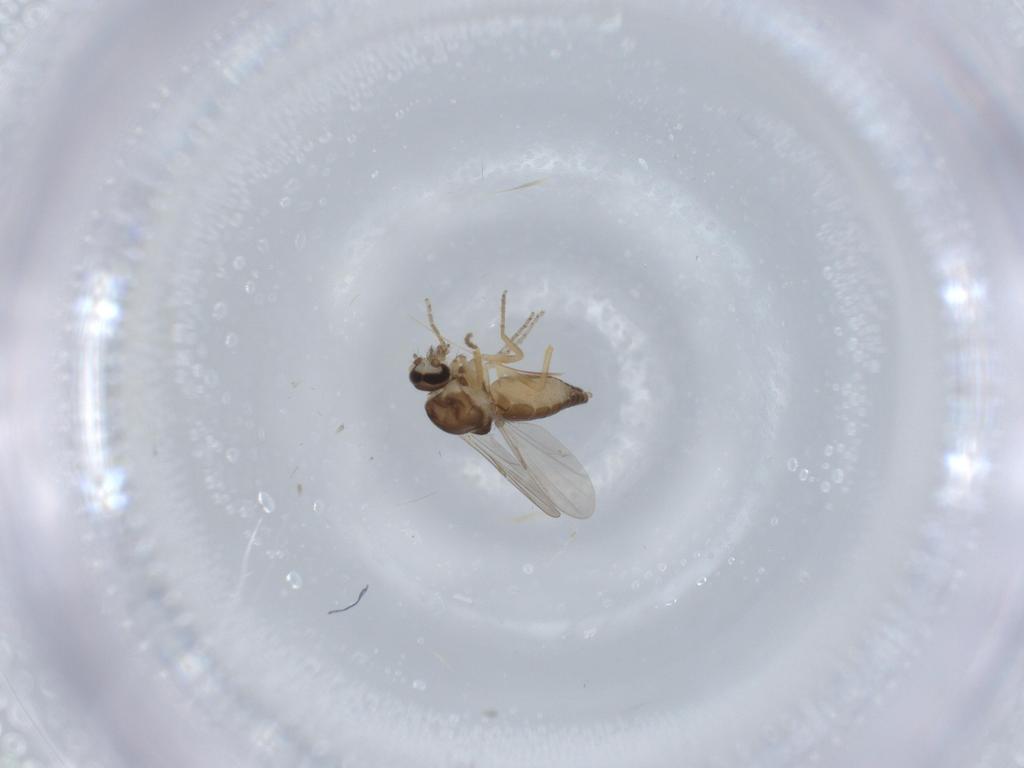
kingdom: Animalia
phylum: Arthropoda
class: Insecta
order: Diptera
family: Ceratopogonidae
